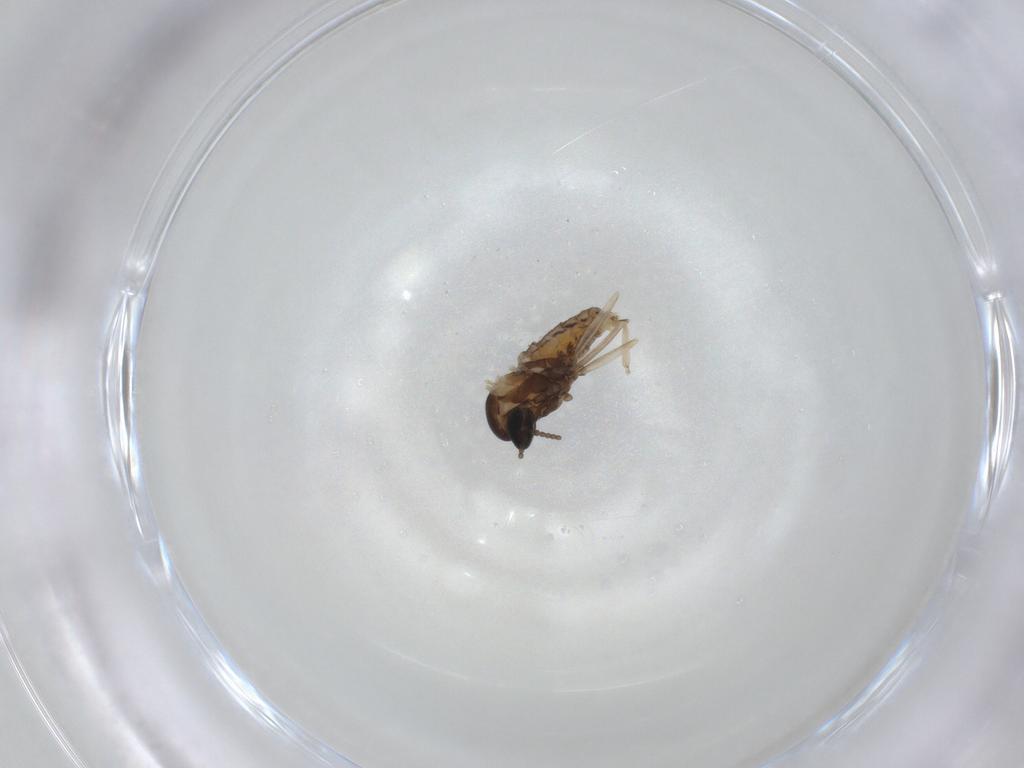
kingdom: Animalia
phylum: Arthropoda
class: Insecta
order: Diptera
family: Cecidomyiidae
